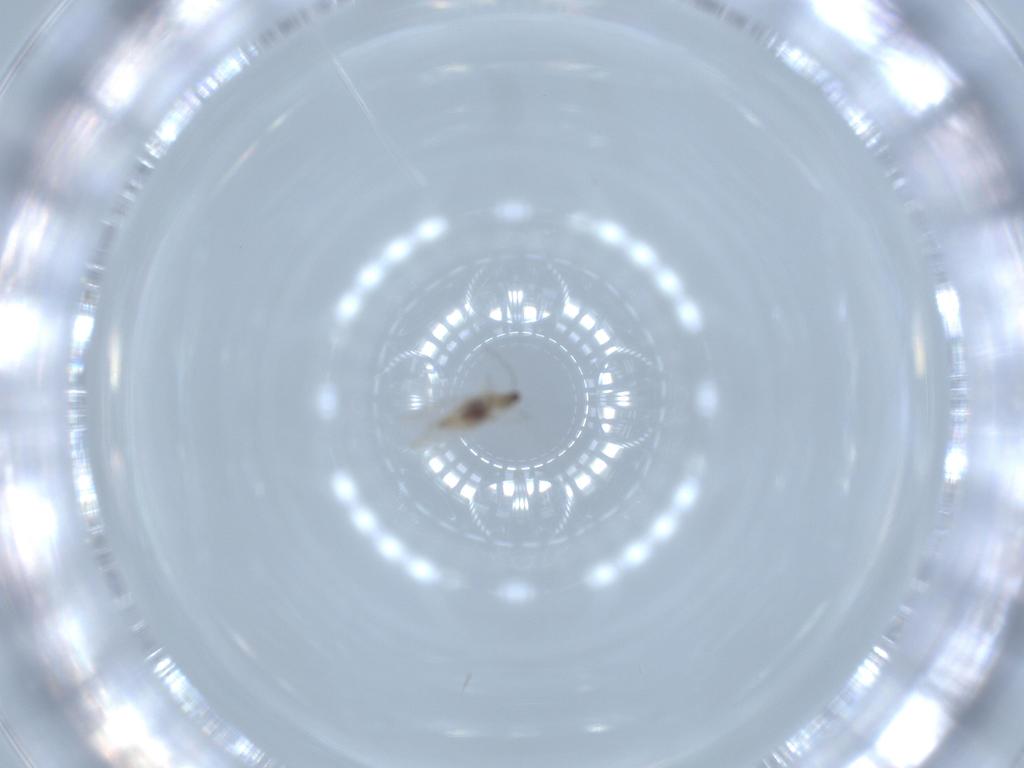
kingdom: Animalia
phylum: Arthropoda
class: Insecta
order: Diptera
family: Cecidomyiidae
